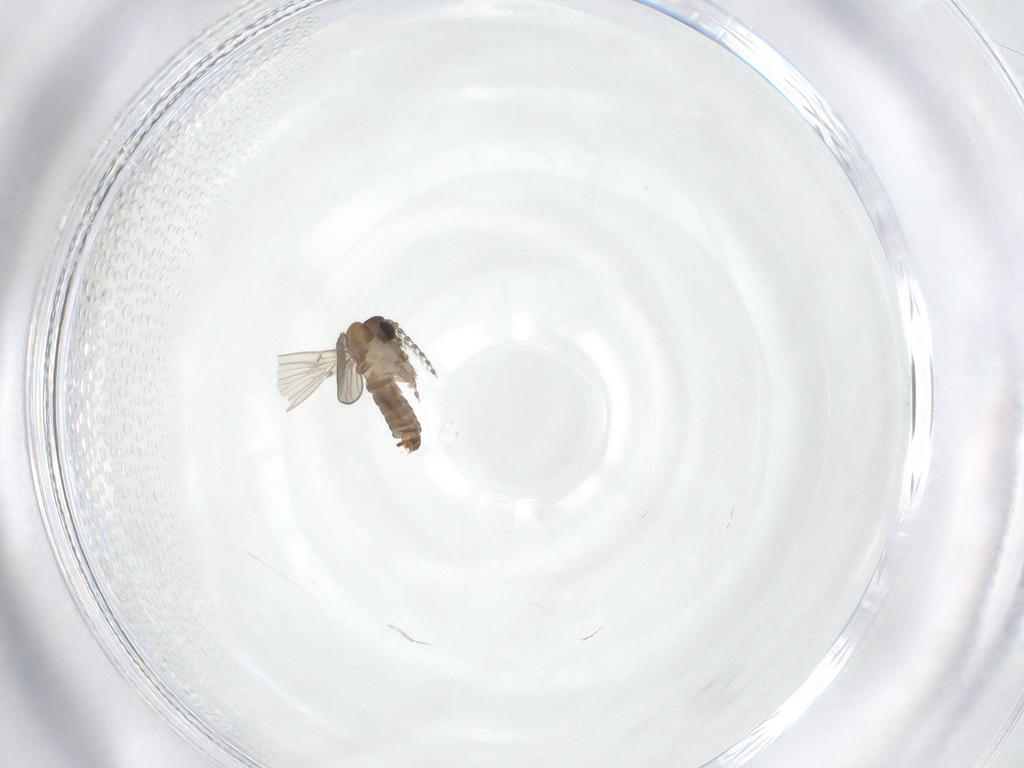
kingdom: Animalia
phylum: Arthropoda
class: Insecta
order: Diptera
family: Psychodidae
